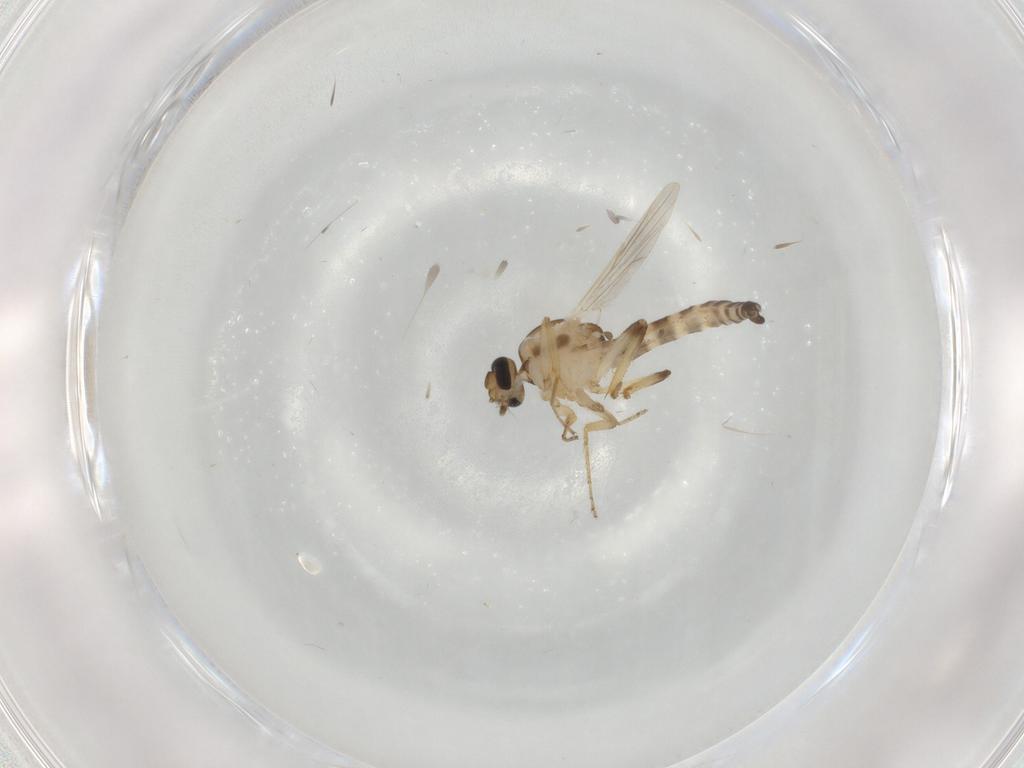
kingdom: Animalia
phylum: Arthropoda
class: Insecta
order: Diptera
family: Ceratopogonidae
